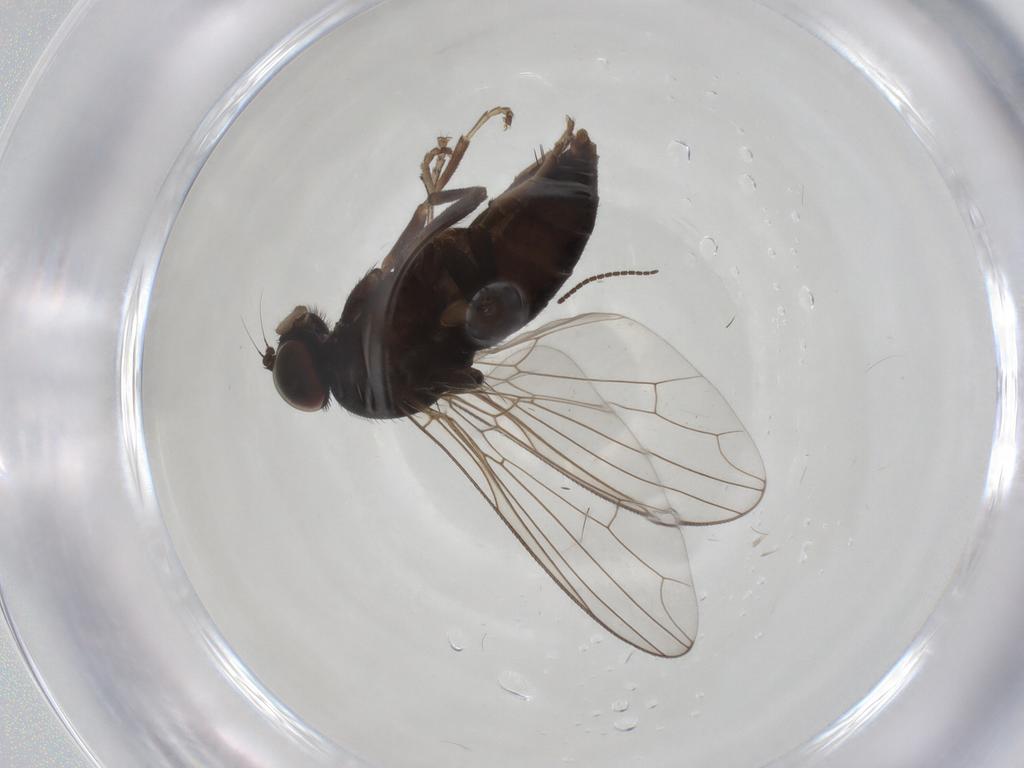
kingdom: Animalia
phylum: Arthropoda
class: Insecta
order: Diptera
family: Platypezidae
